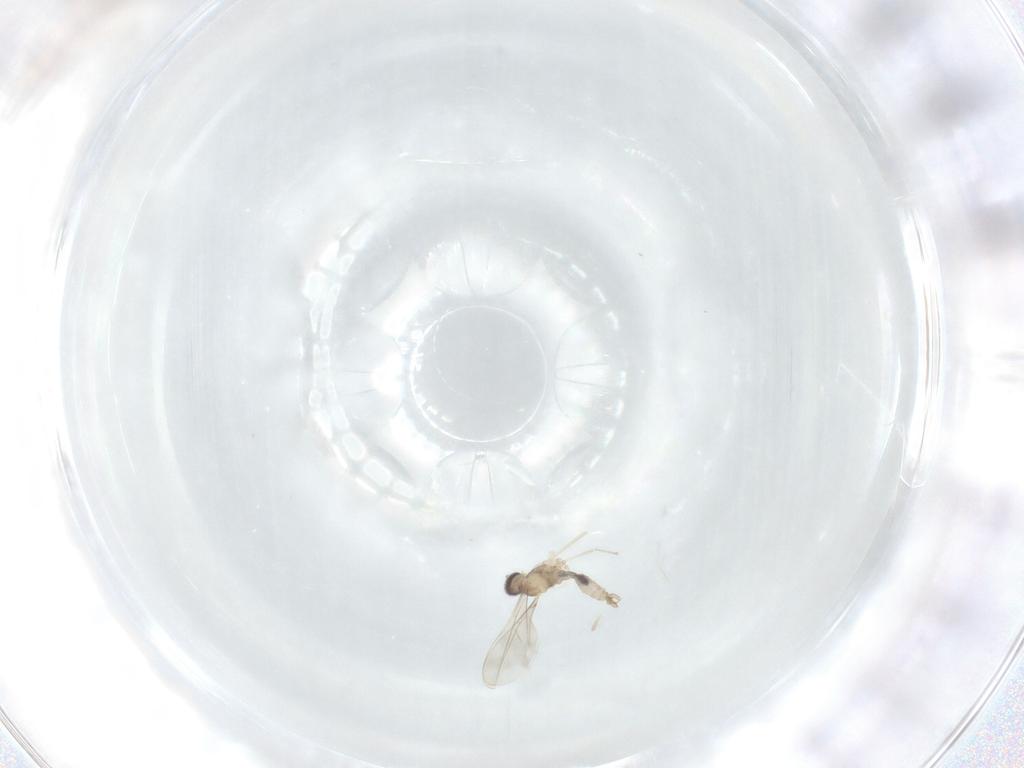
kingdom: Animalia
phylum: Arthropoda
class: Insecta
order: Diptera
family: Cecidomyiidae
